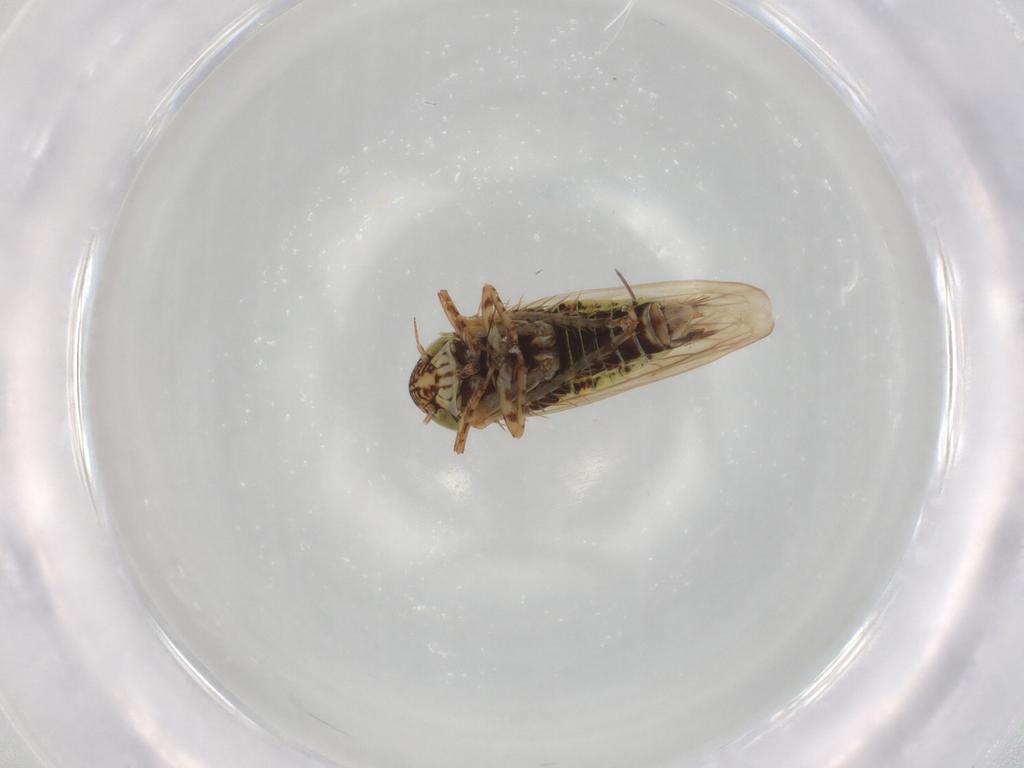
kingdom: Animalia
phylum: Arthropoda
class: Insecta
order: Hemiptera
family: Cicadellidae
